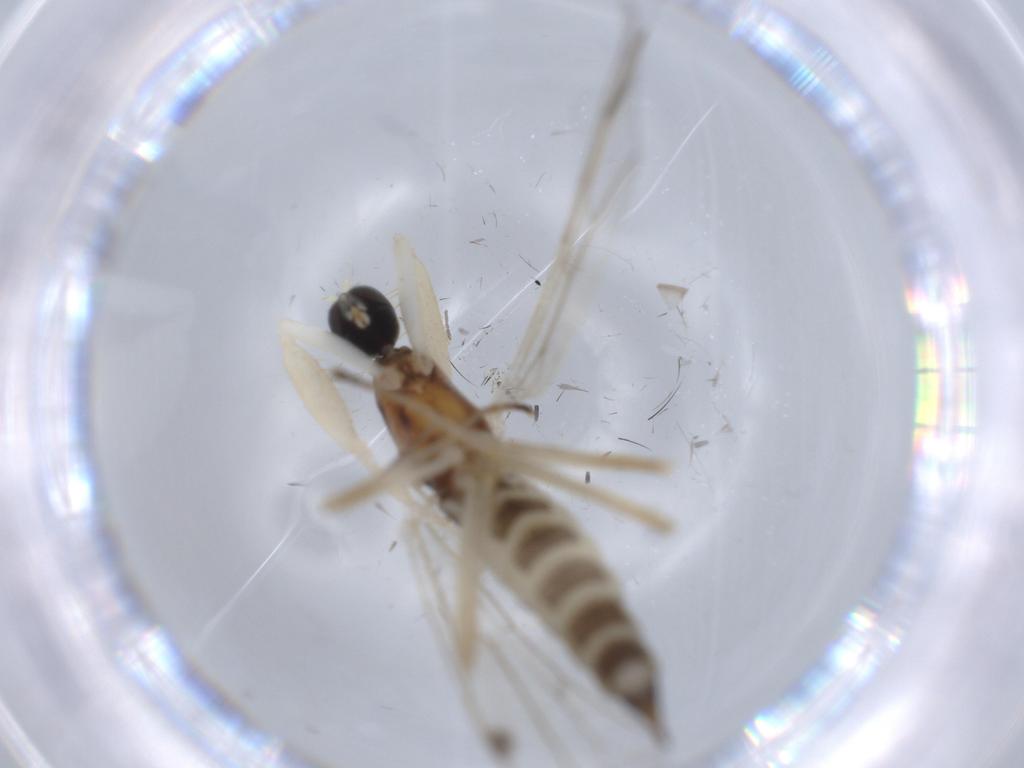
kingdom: Animalia
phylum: Arthropoda
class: Insecta
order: Diptera
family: Empididae
